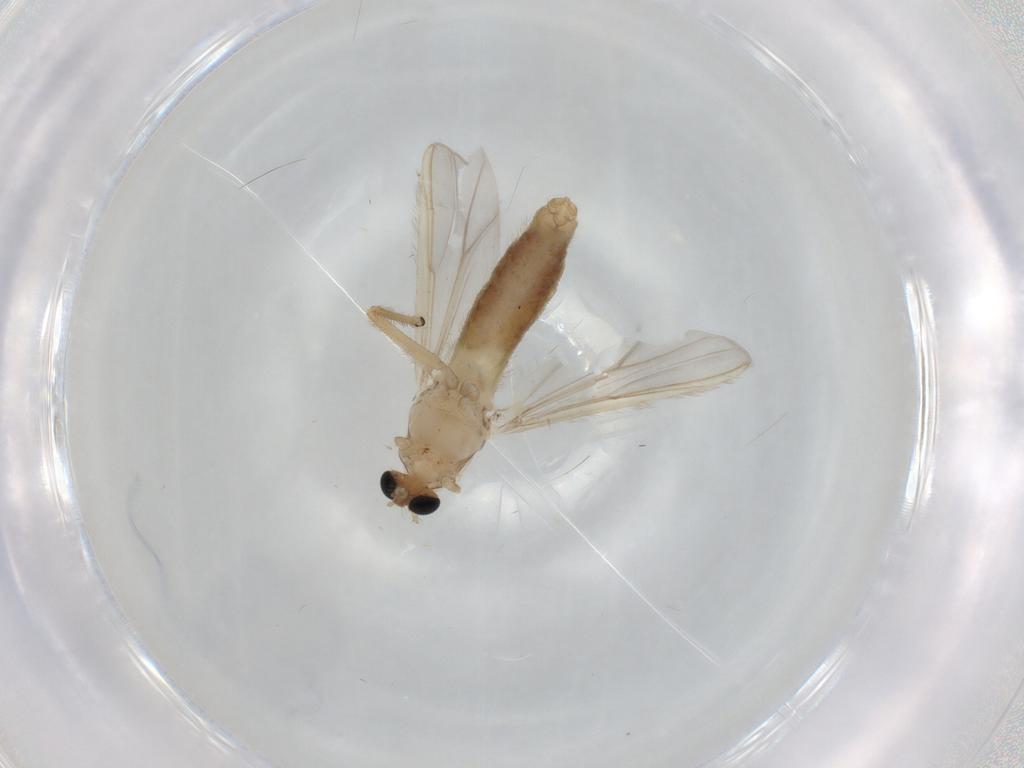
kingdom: Animalia
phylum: Arthropoda
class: Insecta
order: Diptera
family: Chironomidae
